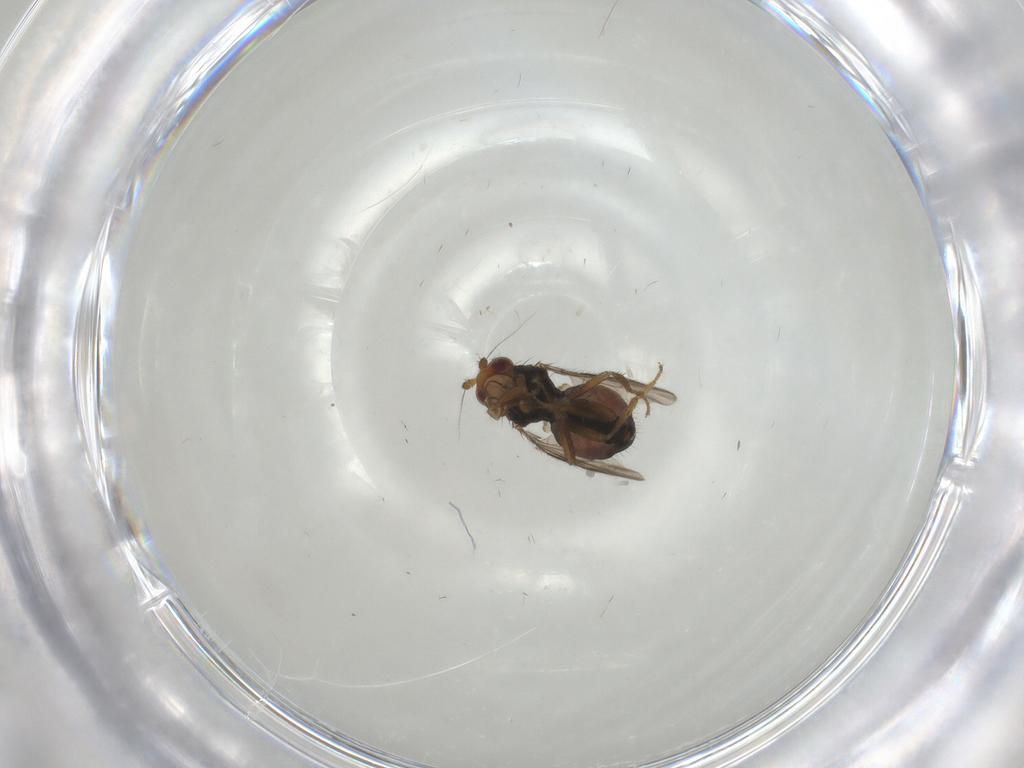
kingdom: Animalia
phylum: Arthropoda
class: Insecta
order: Diptera
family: Sphaeroceridae
